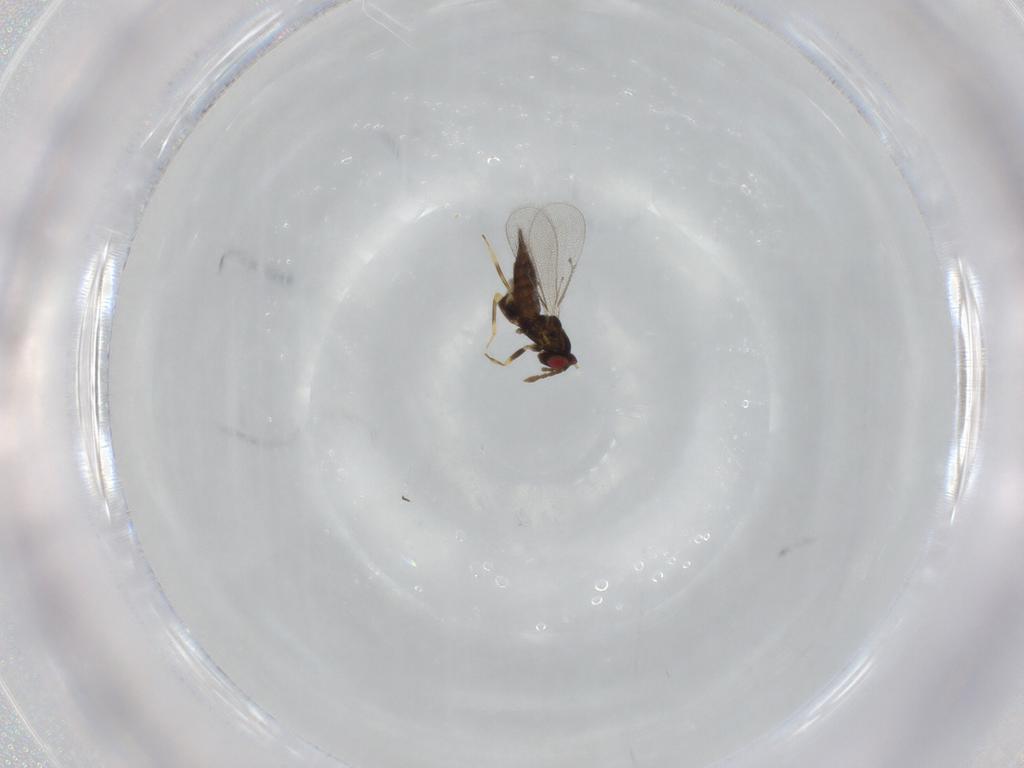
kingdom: Animalia
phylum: Arthropoda
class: Insecta
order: Hymenoptera
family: Eulophidae
